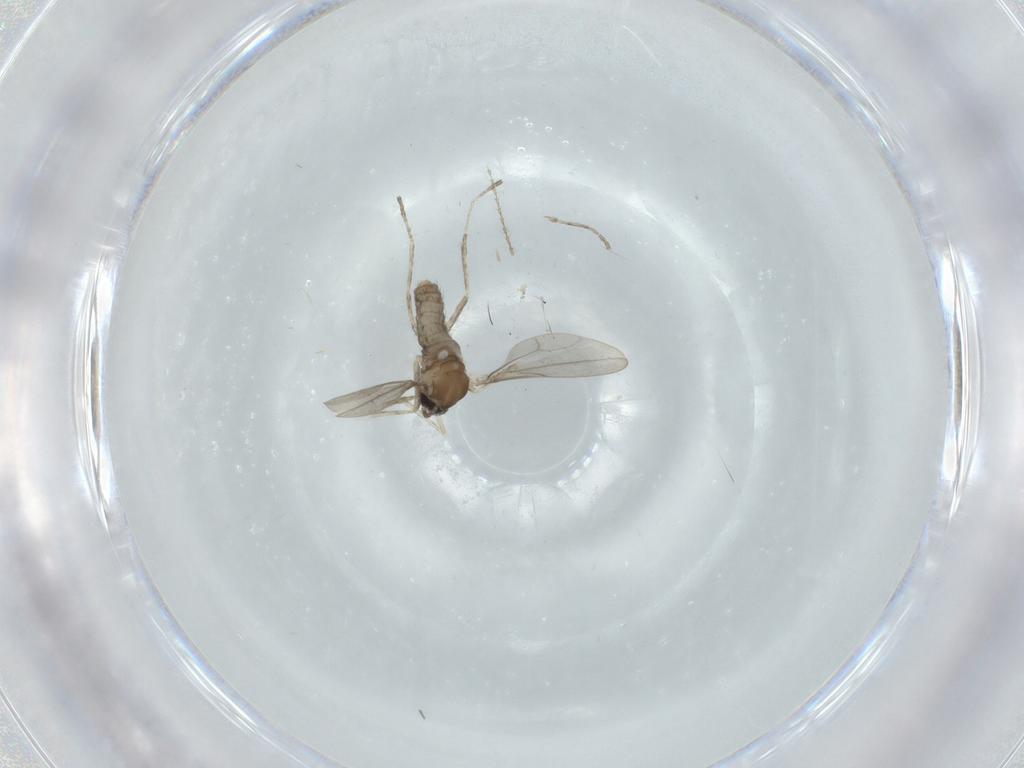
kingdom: Animalia
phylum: Arthropoda
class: Insecta
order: Diptera
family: Sciaridae
